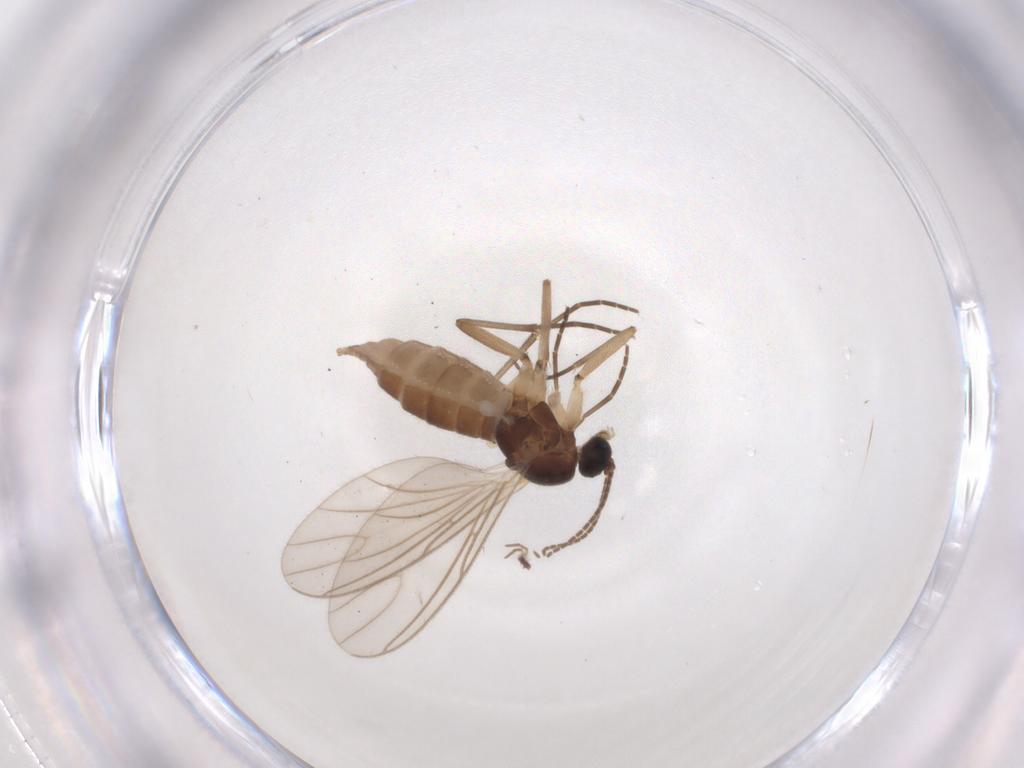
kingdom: Animalia
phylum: Arthropoda
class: Insecta
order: Diptera
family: Sciaridae
